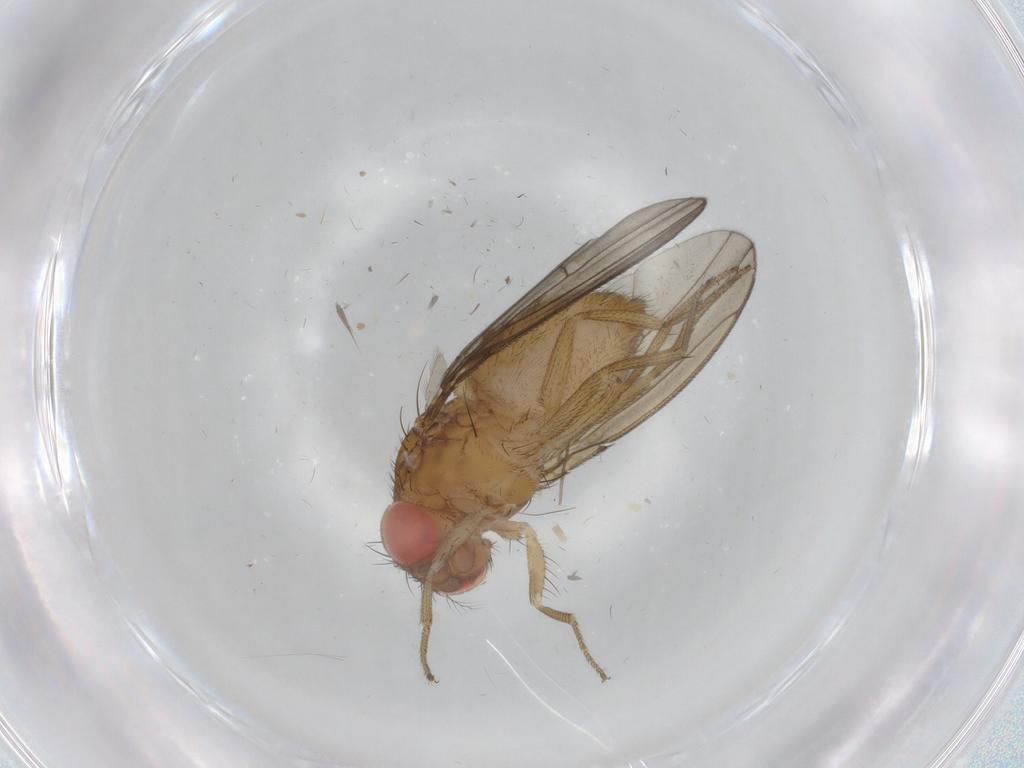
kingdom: Animalia
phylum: Arthropoda
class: Insecta
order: Diptera
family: Drosophilidae
